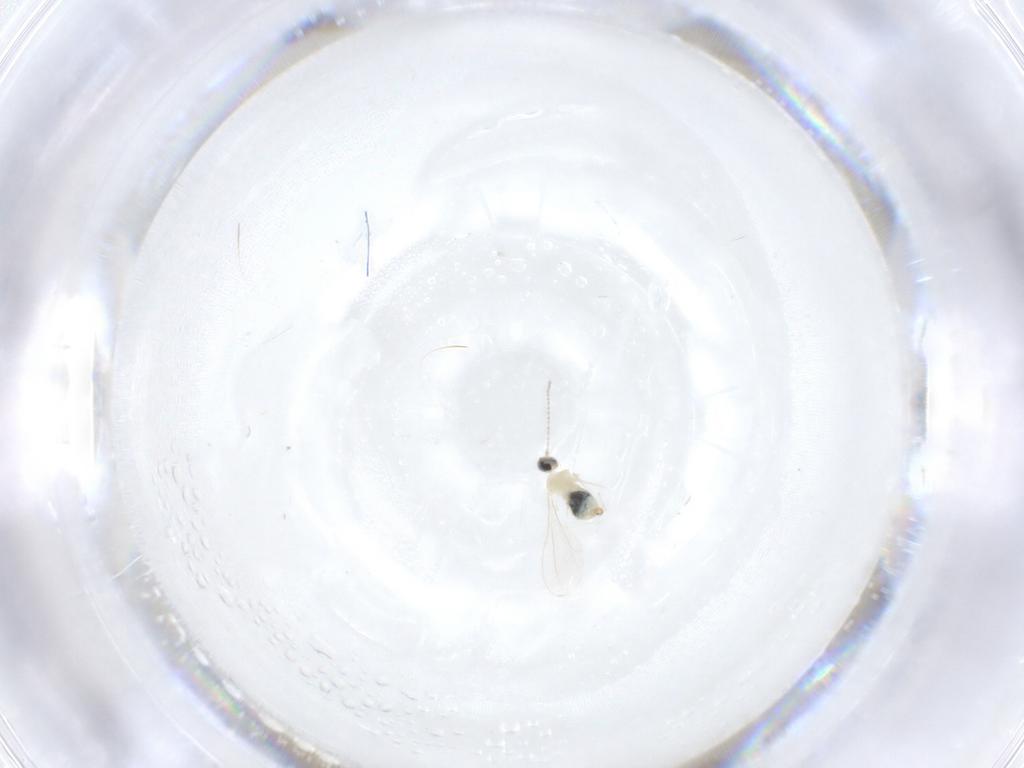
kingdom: Animalia
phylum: Arthropoda
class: Insecta
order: Diptera
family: Cecidomyiidae
